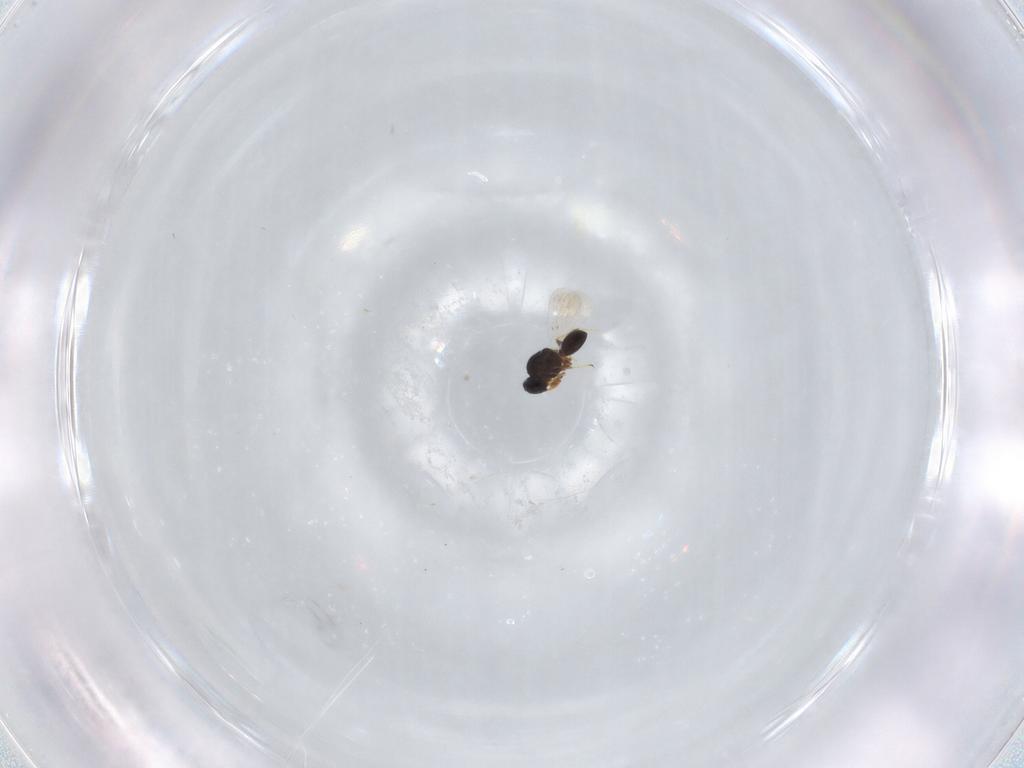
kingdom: Animalia
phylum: Arthropoda
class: Insecta
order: Hymenoptera
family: Platygastridae
